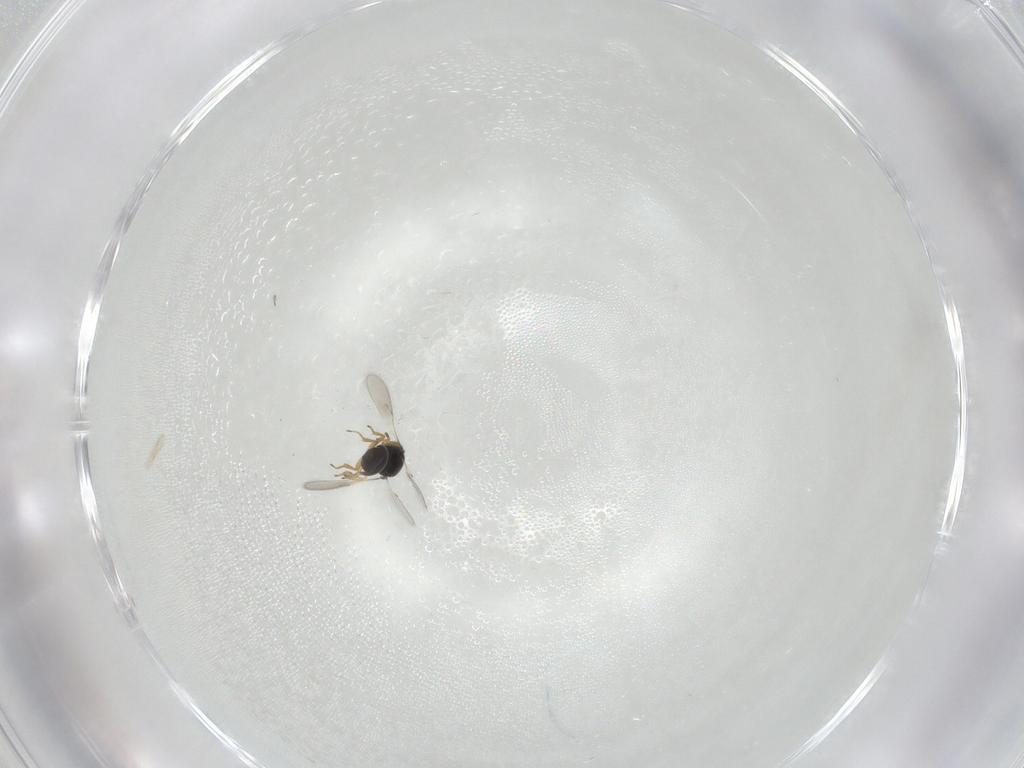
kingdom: Animalia
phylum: Arthropoda
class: Insecta
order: Hymenoptera
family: Scelionidae
